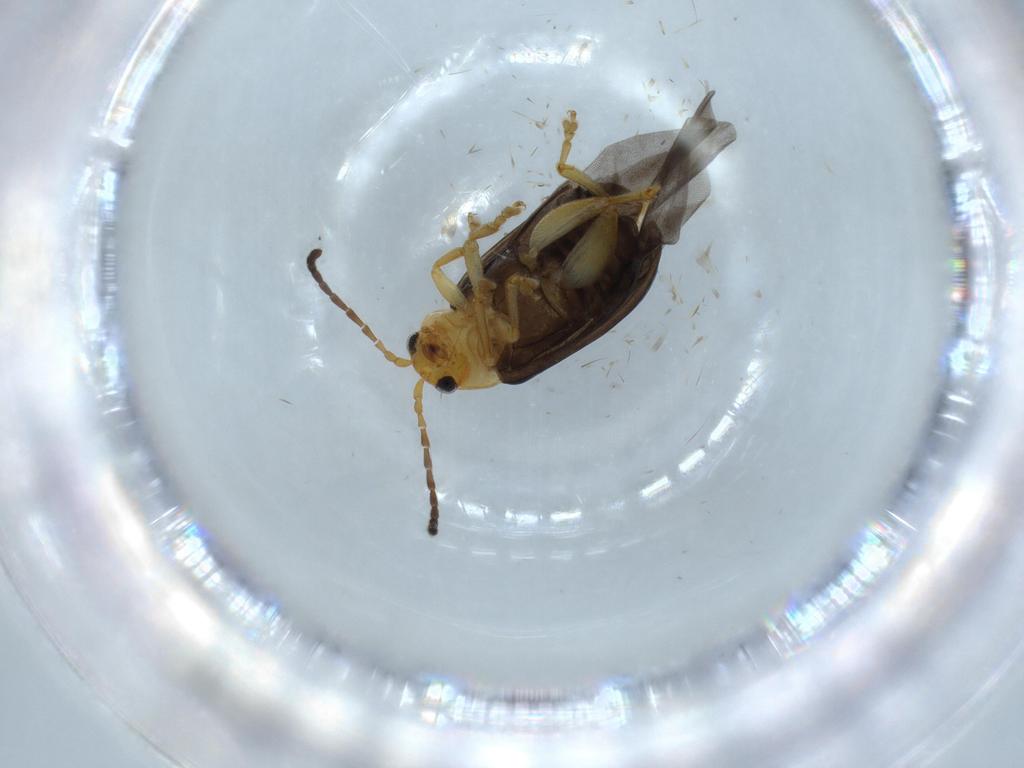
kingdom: Animalia
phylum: Arthropoda
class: Insecta
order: Coleoptera
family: Chrysomelidae
